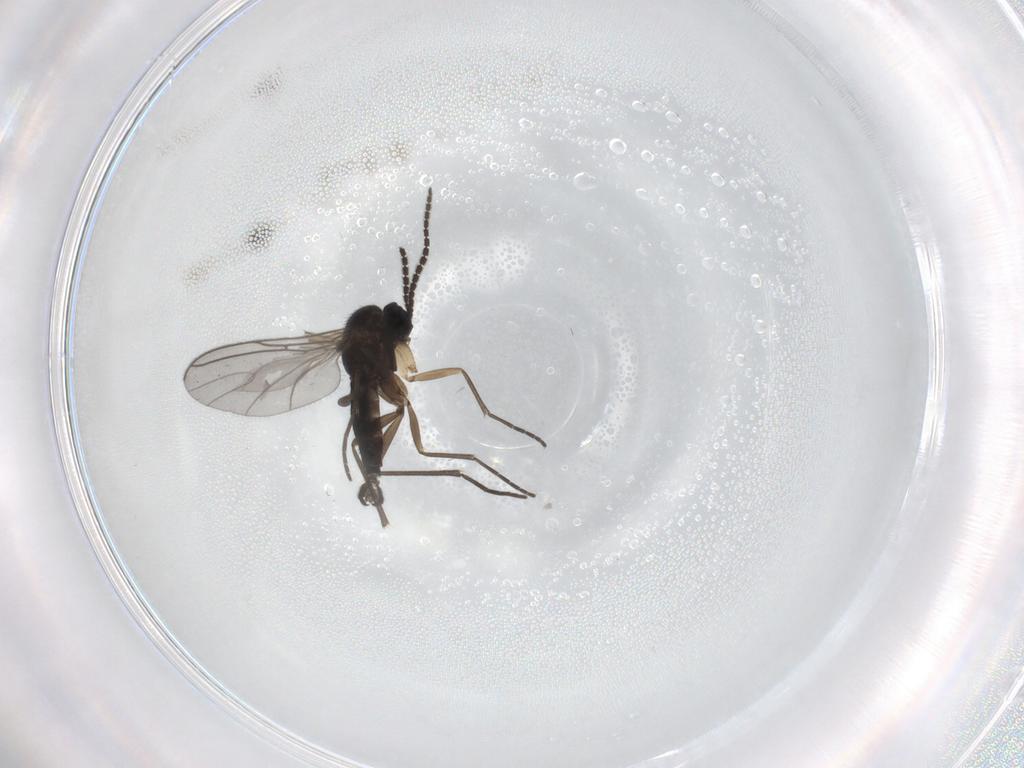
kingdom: Animalia
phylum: Arthropoda
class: Insecta
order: Diptera
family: Sciaridae
